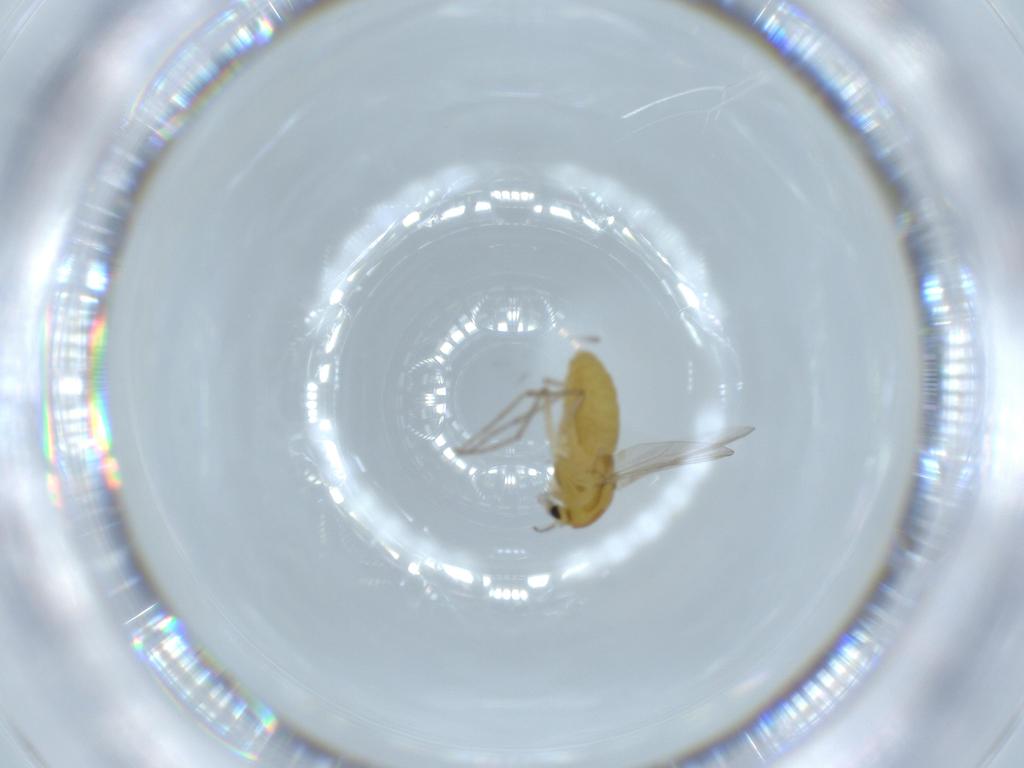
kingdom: Animalia
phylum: Arthropoda
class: Insecta
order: Diptera
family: Chironomidae
